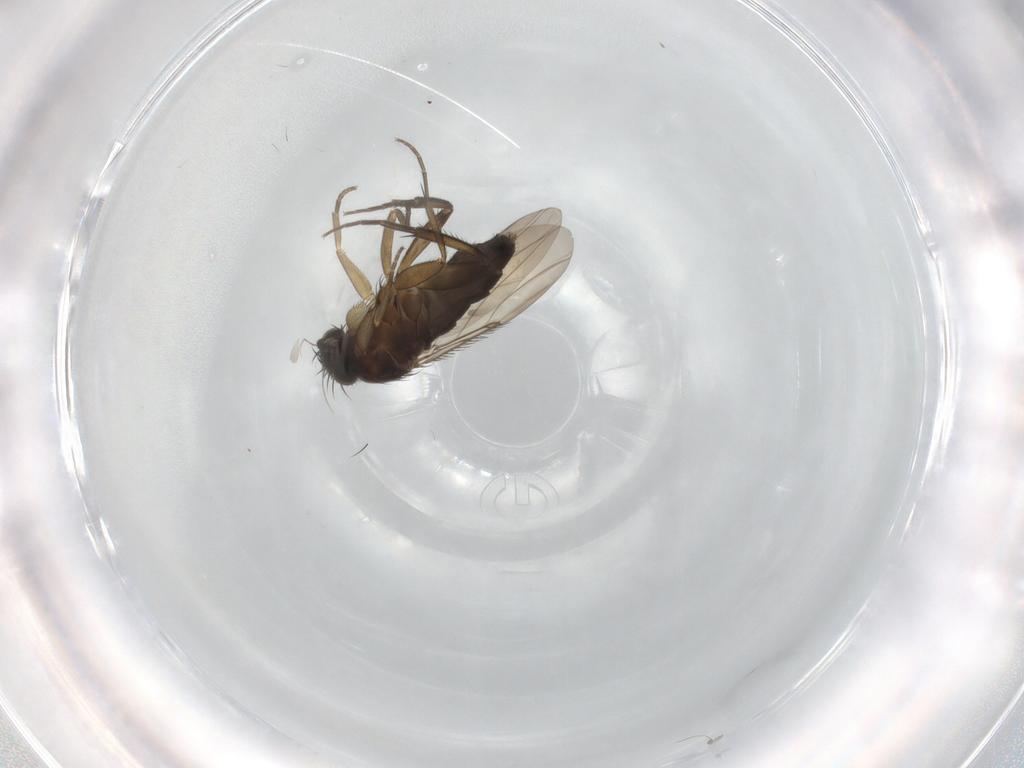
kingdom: Animalia
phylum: Arthropoda
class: Insecta
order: Diptera
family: Phoridae
